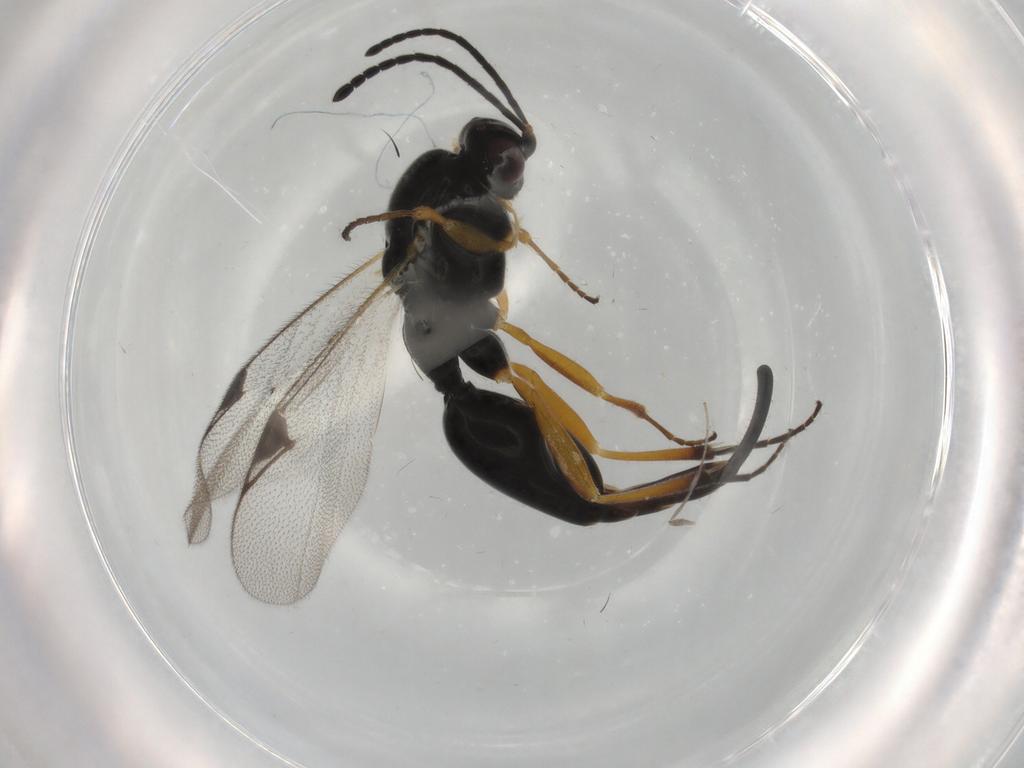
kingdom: Animalia
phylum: Arthropoda
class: Insecta
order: Hymenoptera
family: Proctotrupidae
